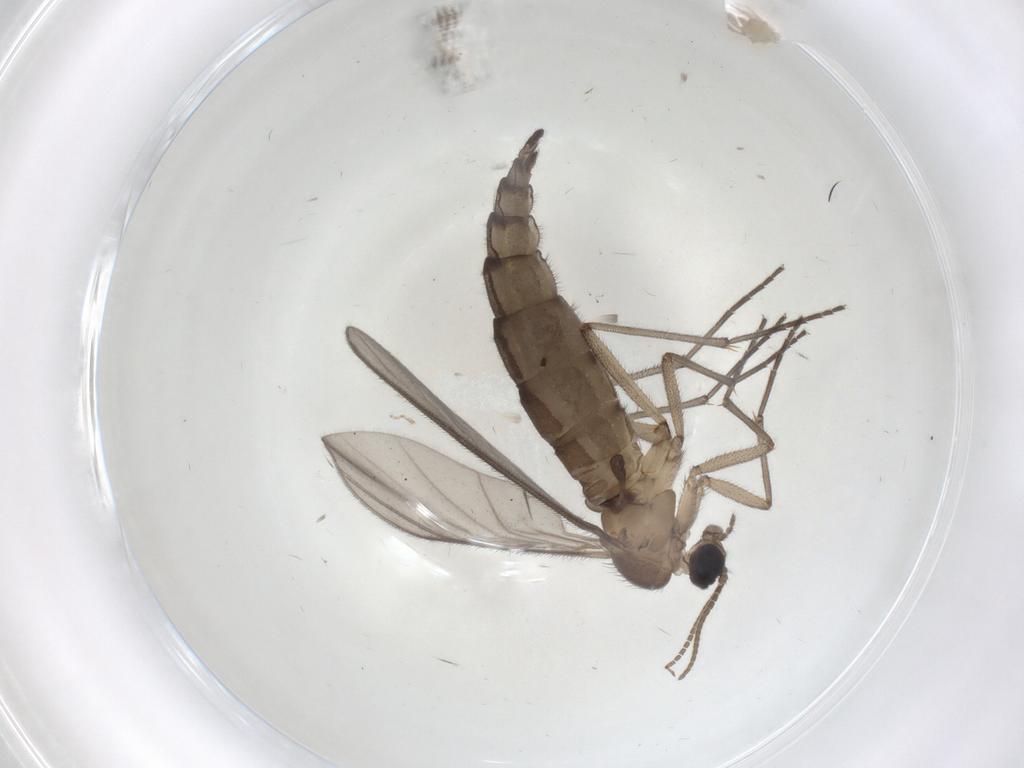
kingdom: Animalia
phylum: Arthropoda
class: Insecta
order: Diptera
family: Phoridae
